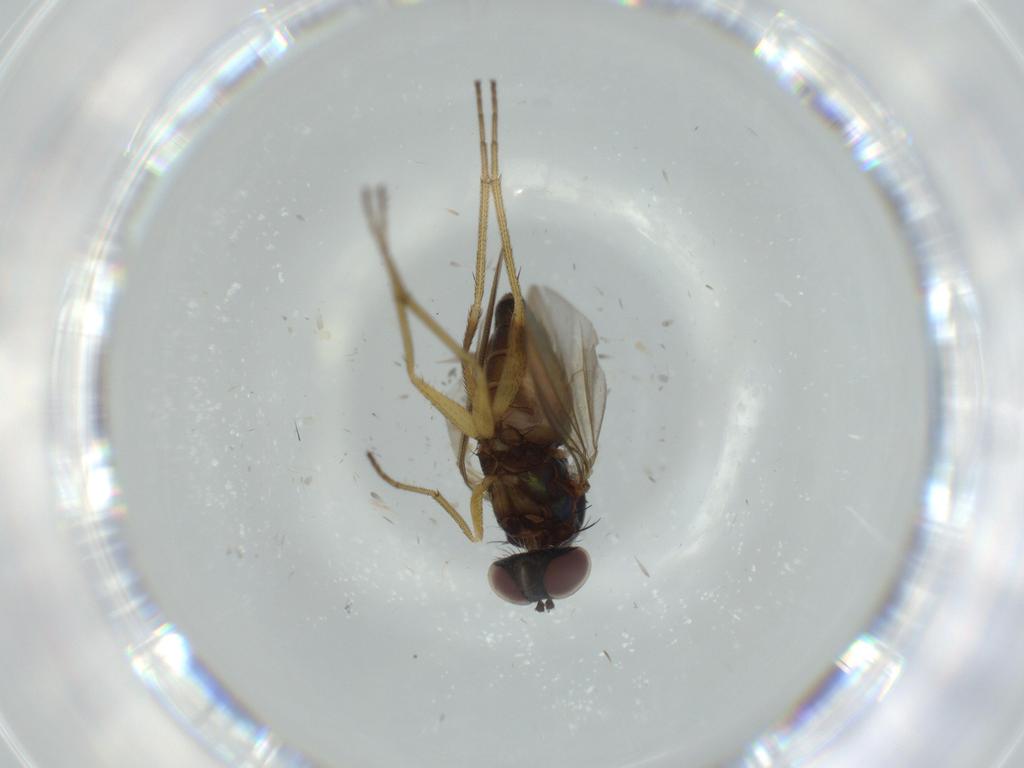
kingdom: Animalia
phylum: Arthropoda
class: Insecta
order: Diptera
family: Dolichopodidae
